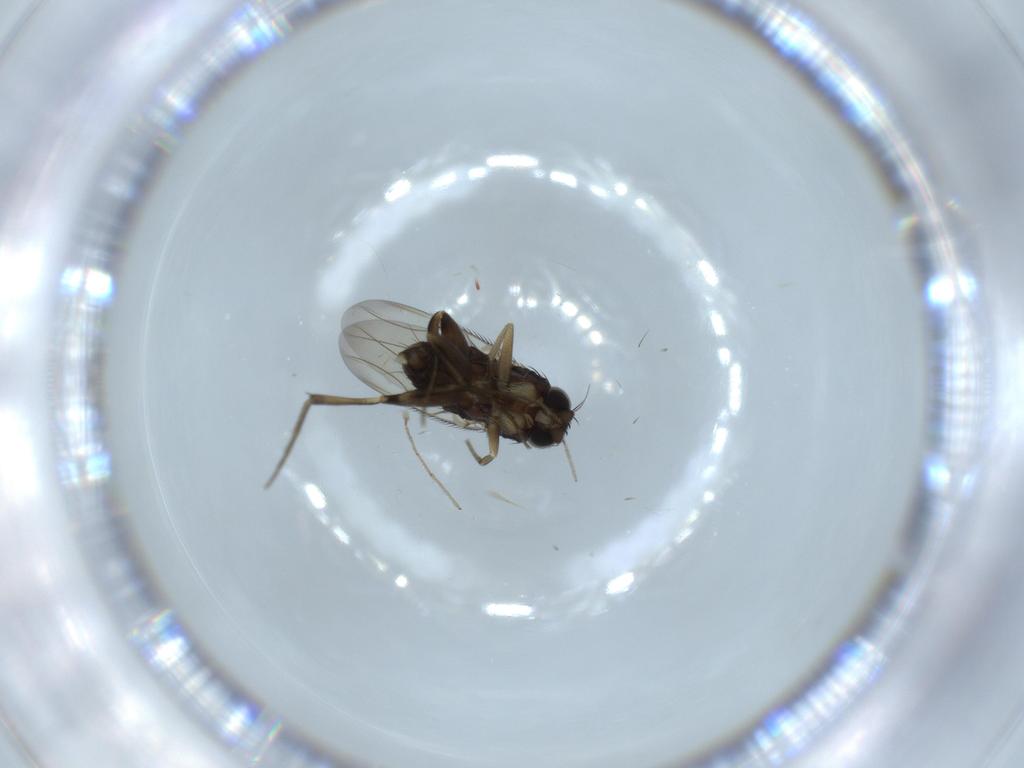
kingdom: Animalia
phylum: Arthropoda
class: Insecta
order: Diptera
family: Phoridae
